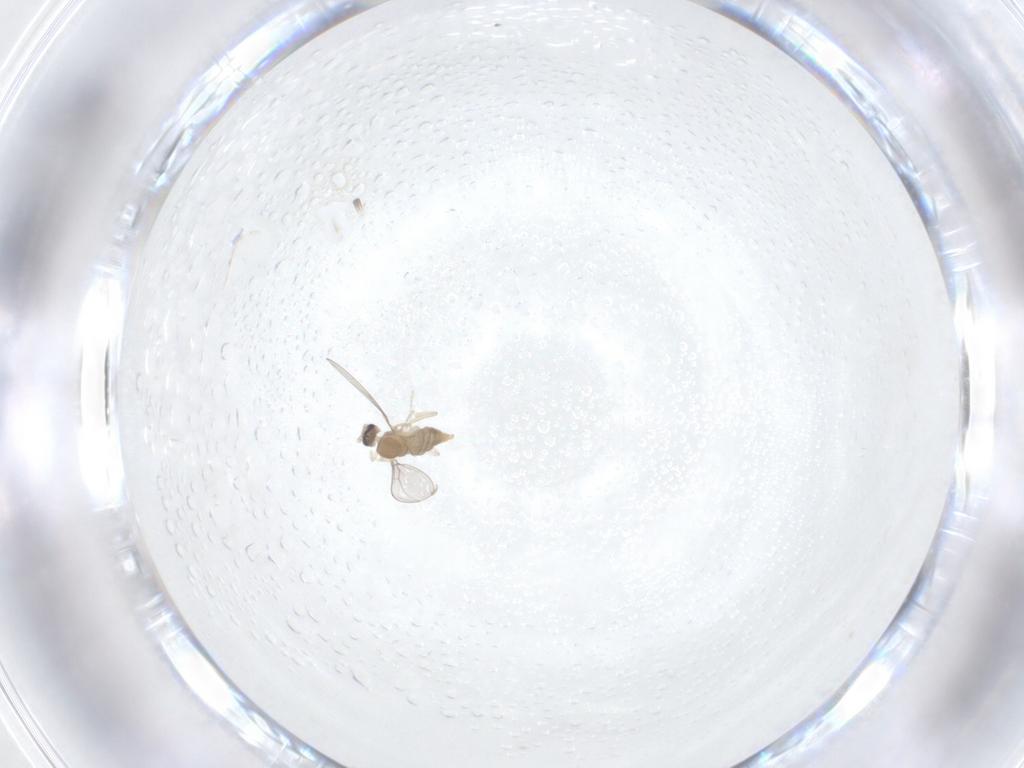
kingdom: Animalia
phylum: Arthropoda
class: Insecta
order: Diptera
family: Cecidomyiidae
